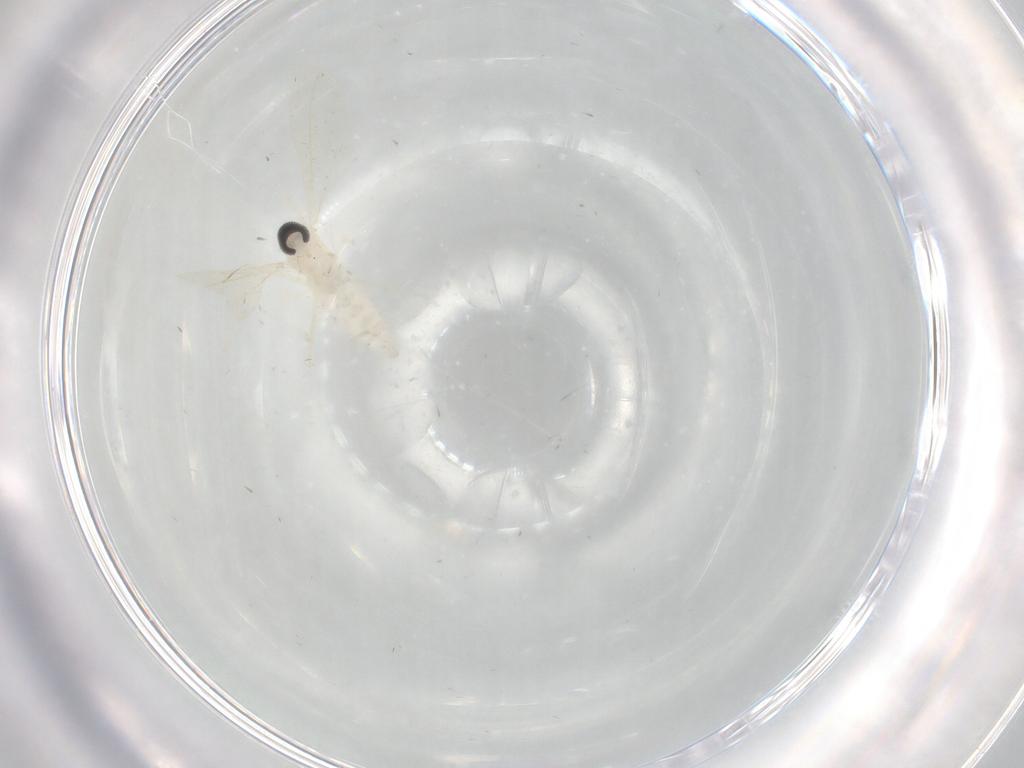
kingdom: Animalia
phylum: Arthropoda
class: Insecta
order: Diptera
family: Cecidomyiidae
